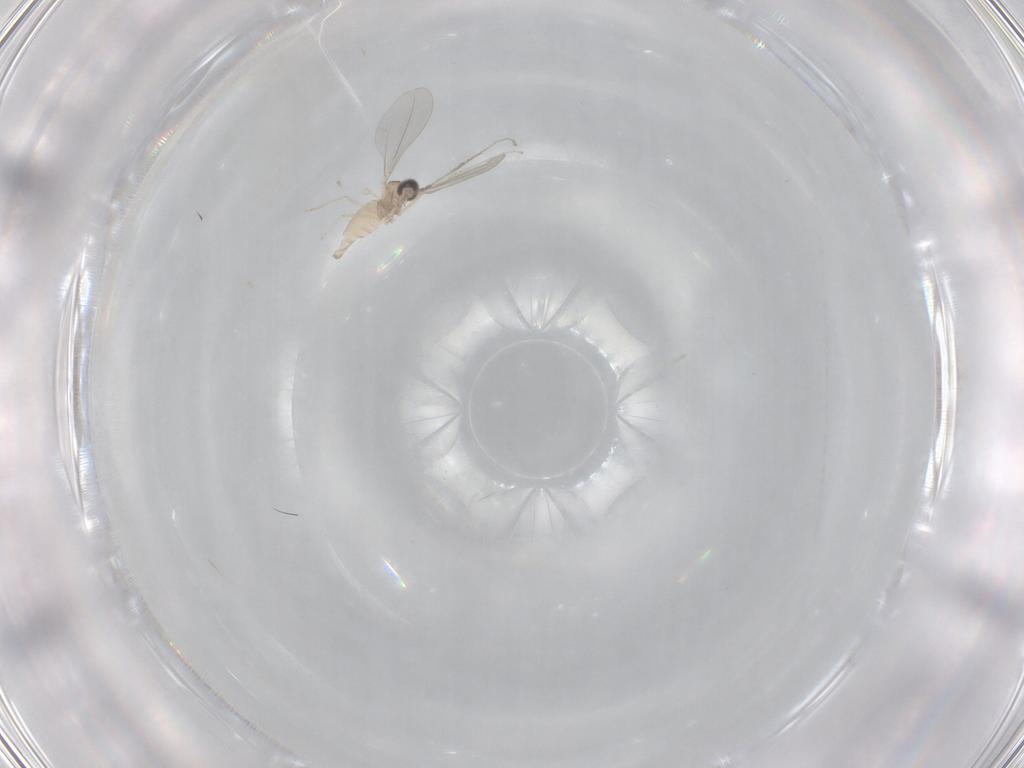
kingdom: Animalia
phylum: Arthropoda
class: Insecta
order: Diptera
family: Cecidomyiidae
